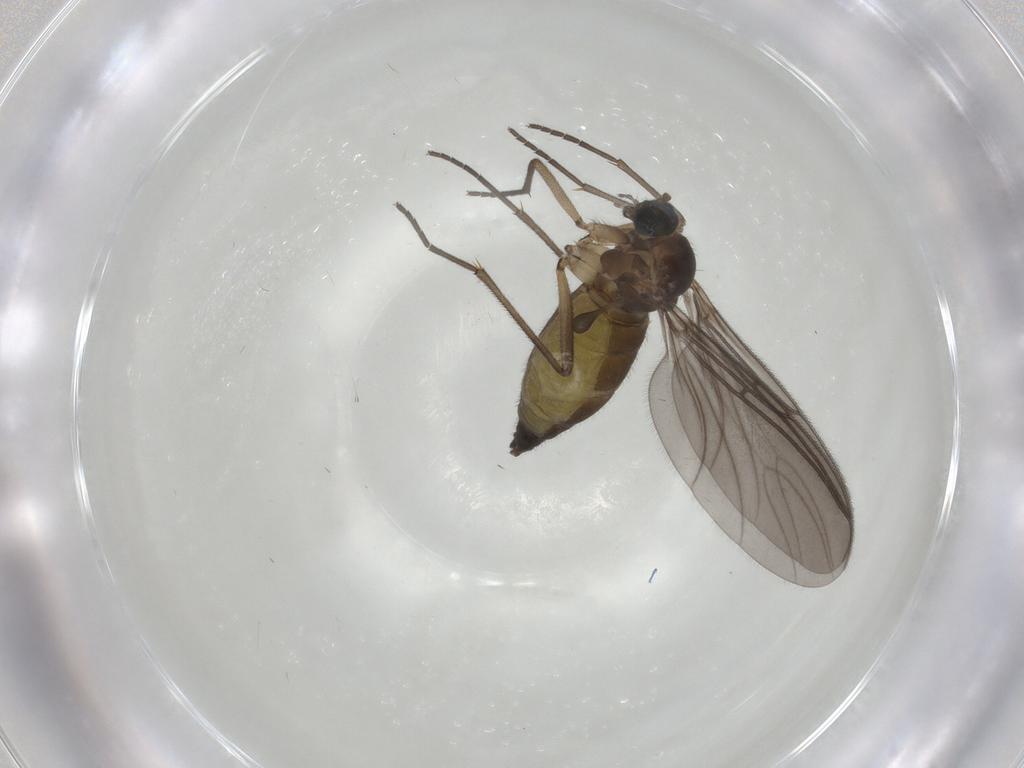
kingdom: Animalia
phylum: Arthropoda
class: Insecta
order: Diptera
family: Sciaridae
